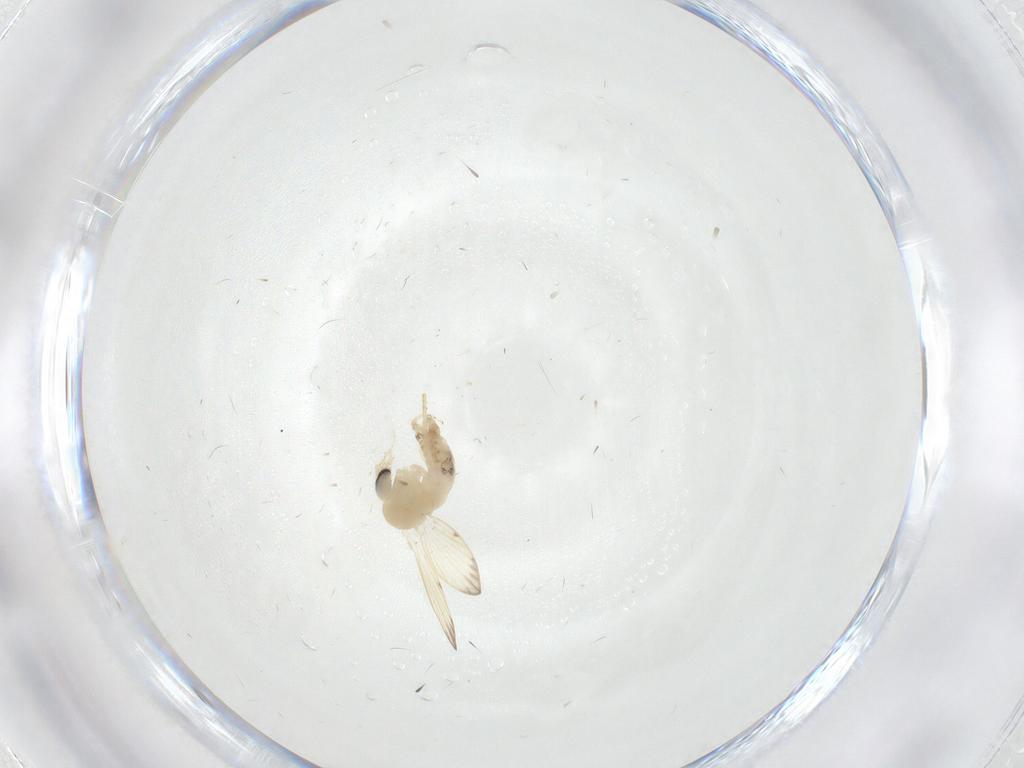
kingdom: Animalia
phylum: Arthropoda
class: Insecta
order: Diptera
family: Psychodidae
